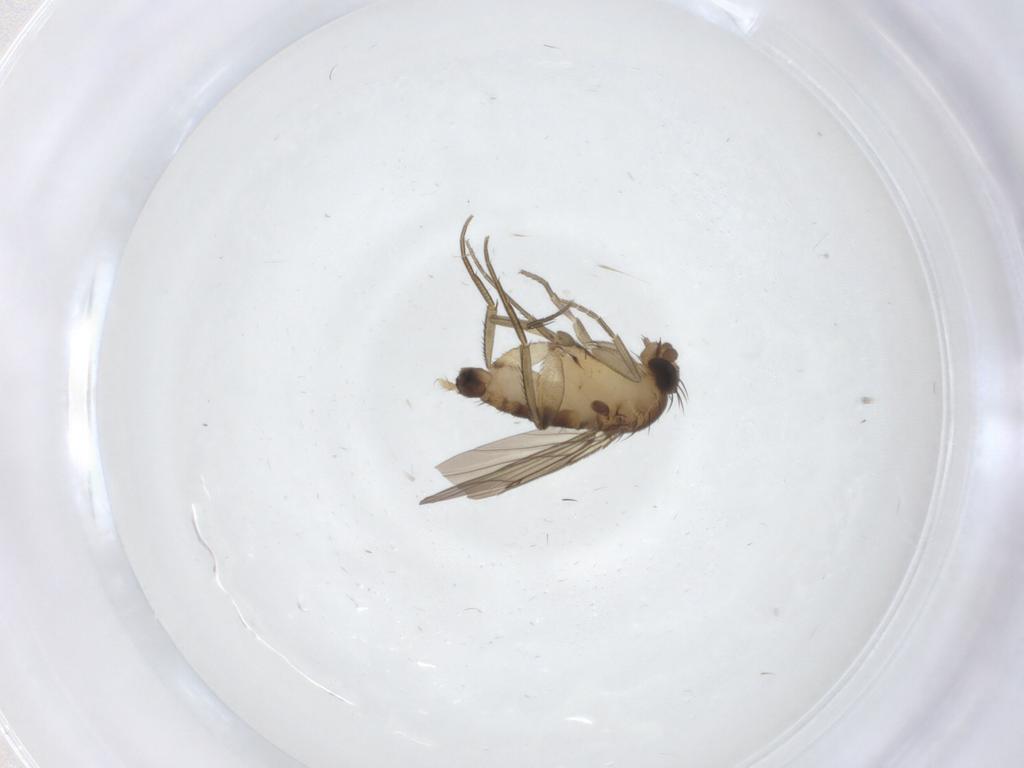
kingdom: Animalia
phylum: Arthropoda
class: Insecta
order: Diptera
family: Phoridae
